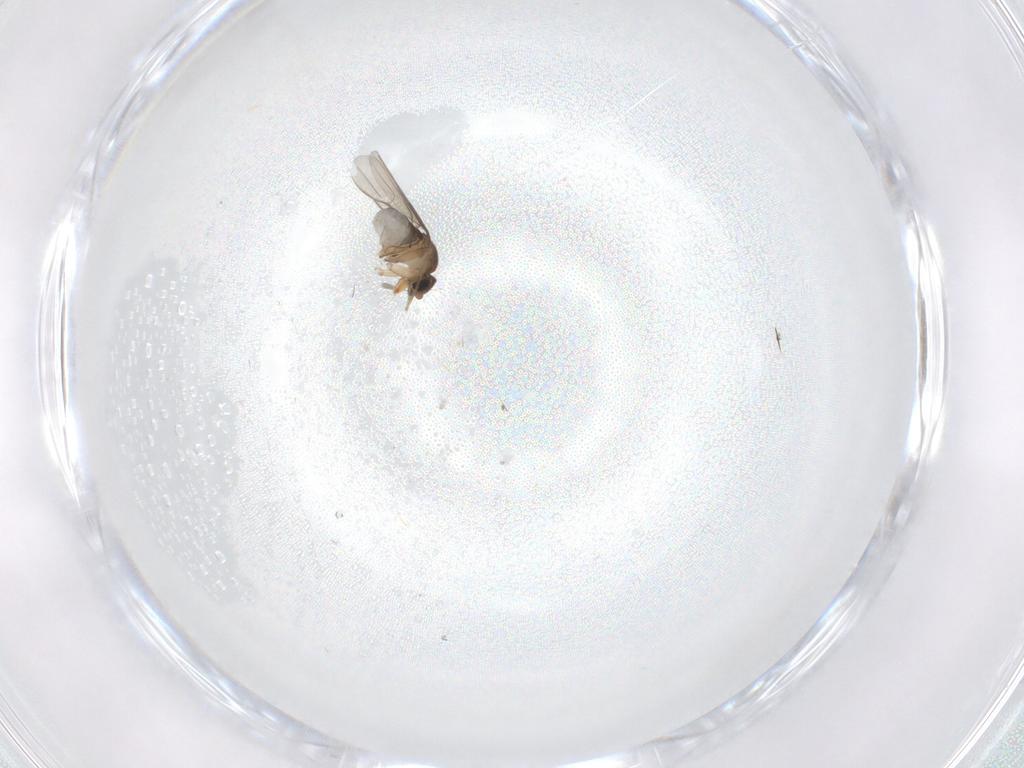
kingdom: Animalia
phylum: Arthropoda
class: Insecta
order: Diptera
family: Phoridae
